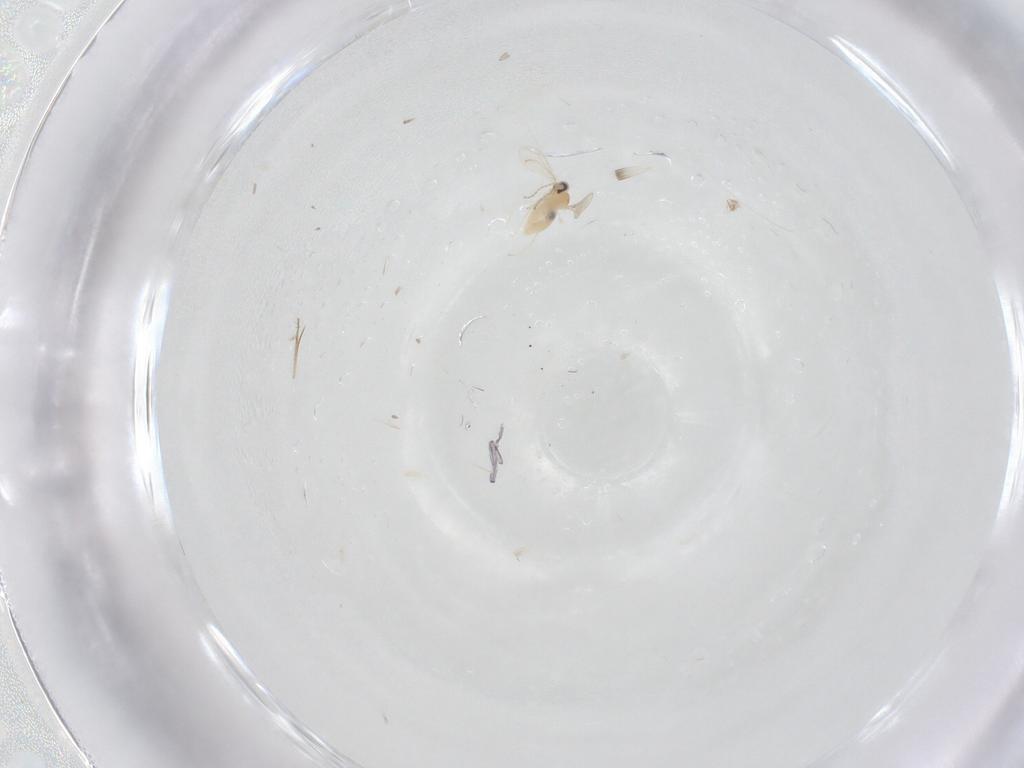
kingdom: Animalia
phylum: Arthropoda
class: Insecta
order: Diptera
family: Cecidomyiidae
